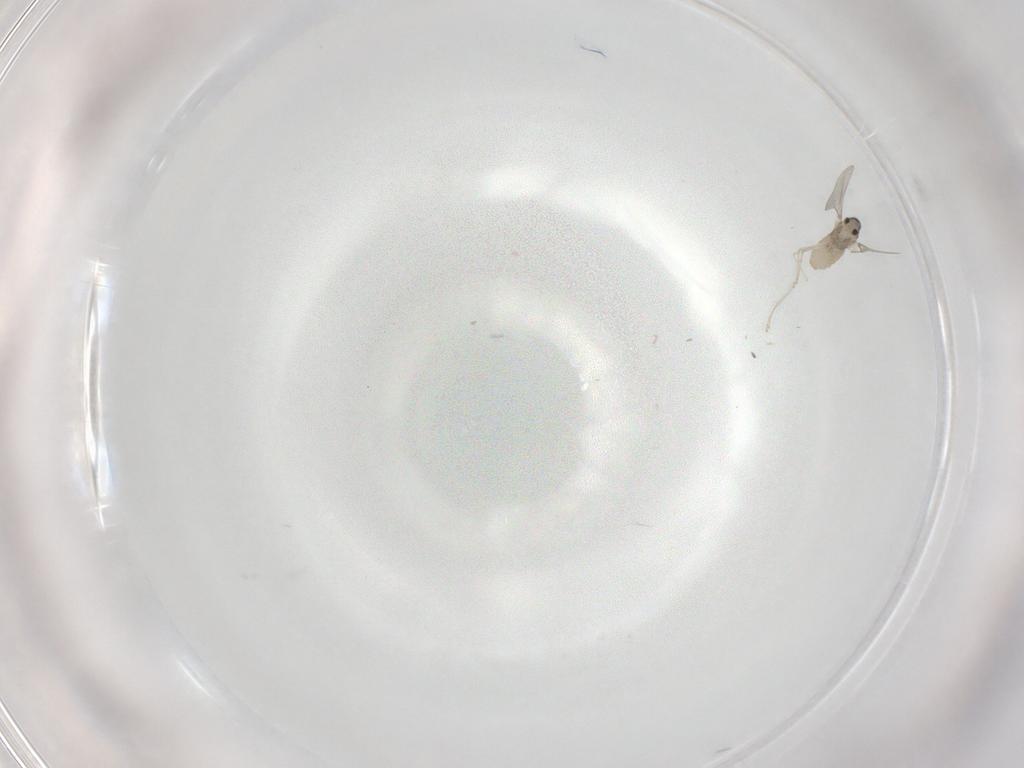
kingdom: Animalia
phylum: Arthropoda
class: Insecta
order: Diptera
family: Cecidomyiidae
